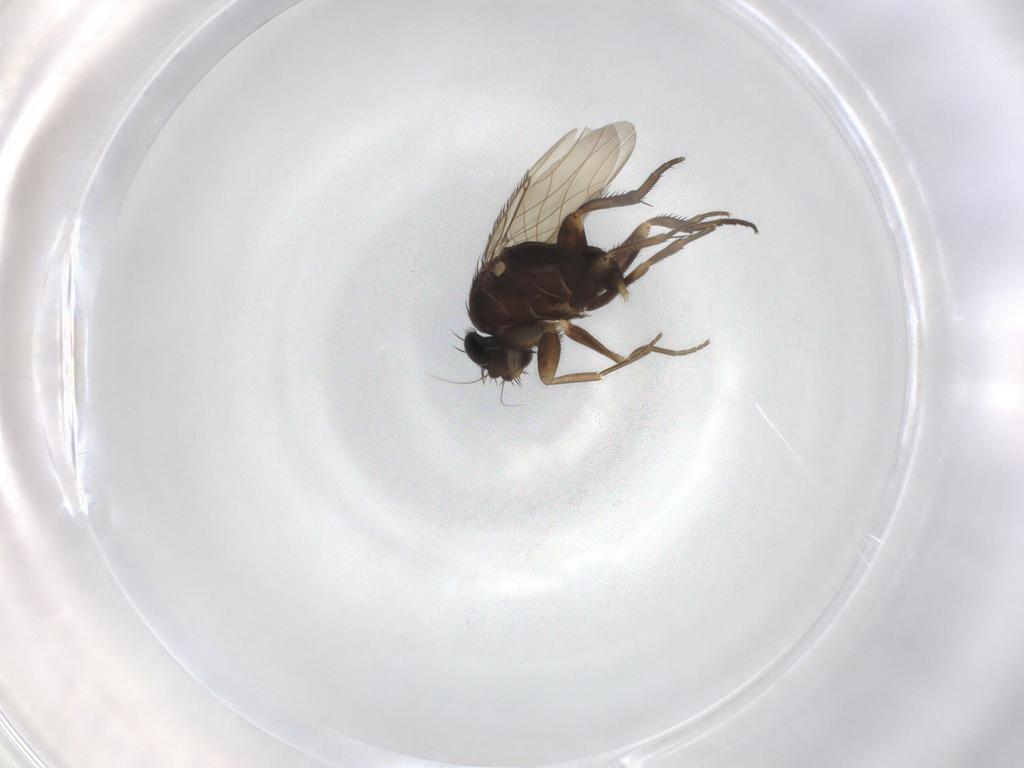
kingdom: Animalia
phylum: Arthropoda
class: Insecta
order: Diptera
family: Phoridae
